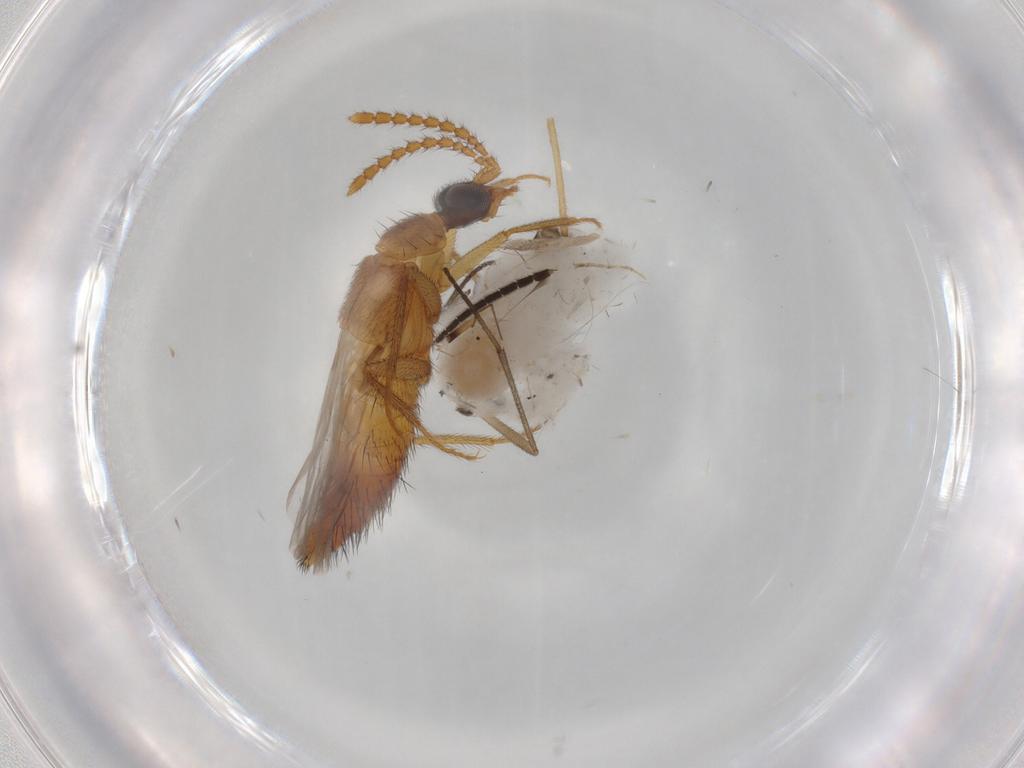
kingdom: Animalia
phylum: Arthropoda
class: Insecta
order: Coleoptera
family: Staphylinidae
